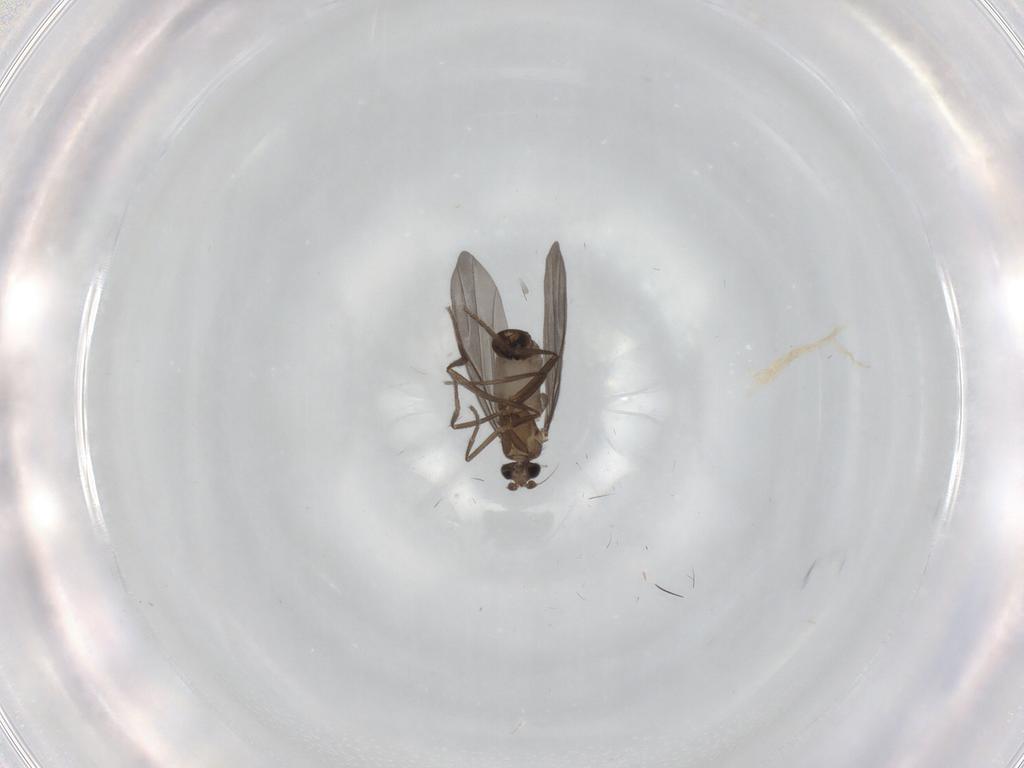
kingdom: Animalia
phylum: Arthropoda
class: Insecta
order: Diptera
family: Phoridae
